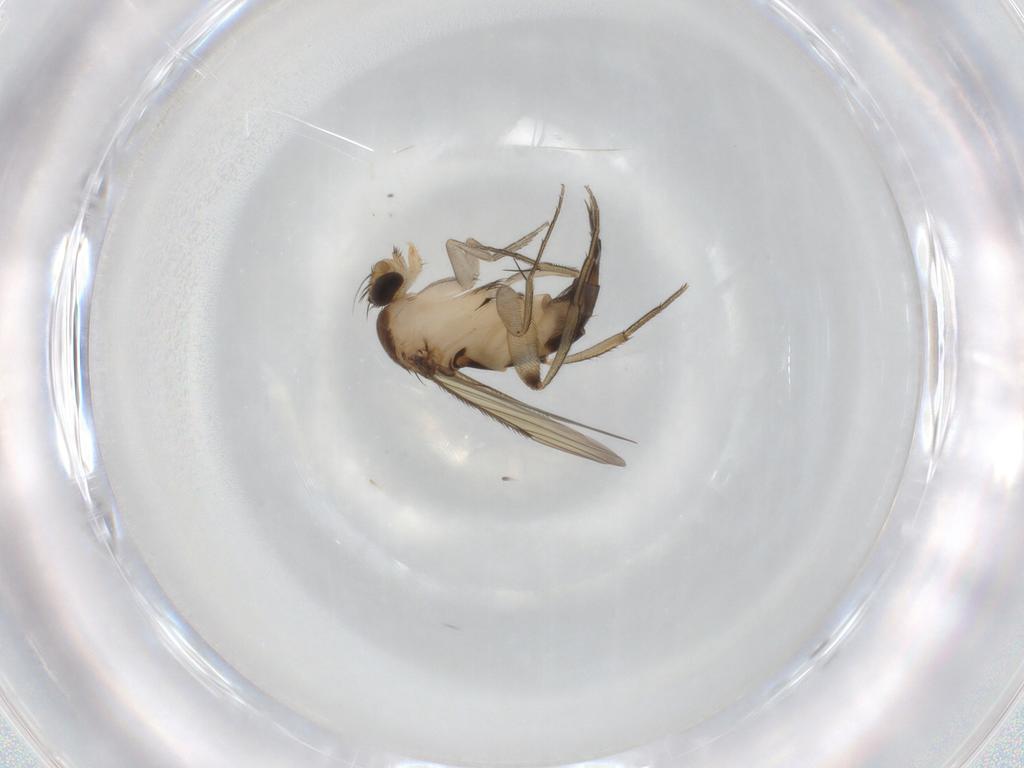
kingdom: Animalia
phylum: Arthropoda
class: Insecta
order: Diptera
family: Phoridae
